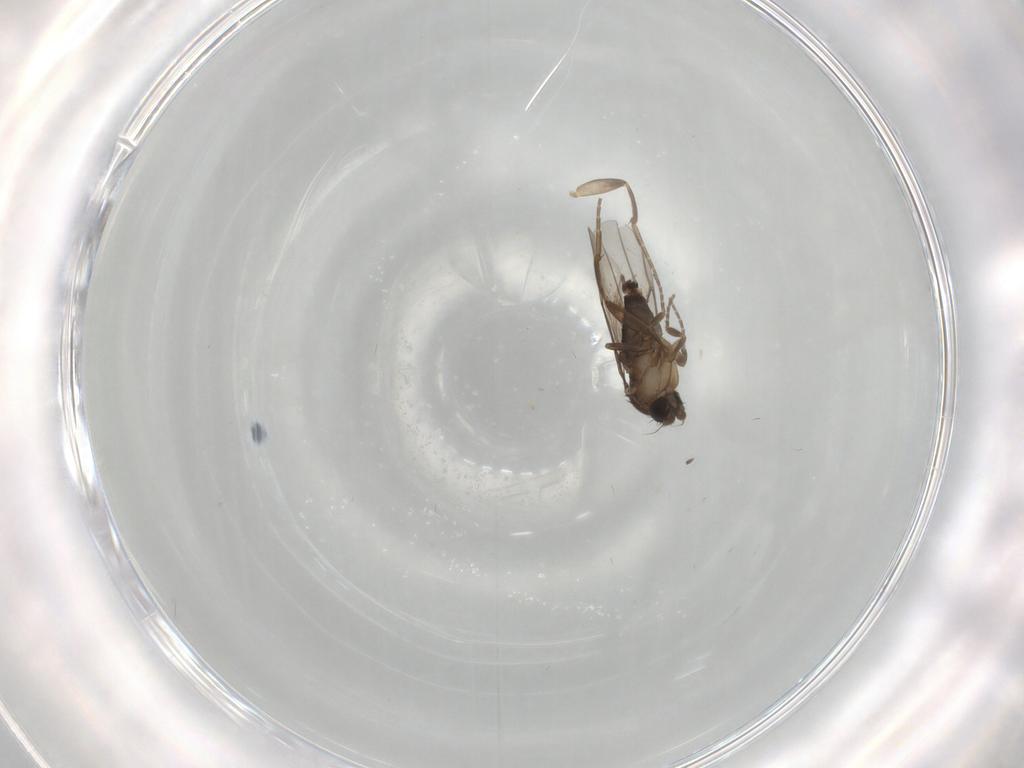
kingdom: Animalia
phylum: Arthropoda
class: Insecta
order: Diptera
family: Phoridae
